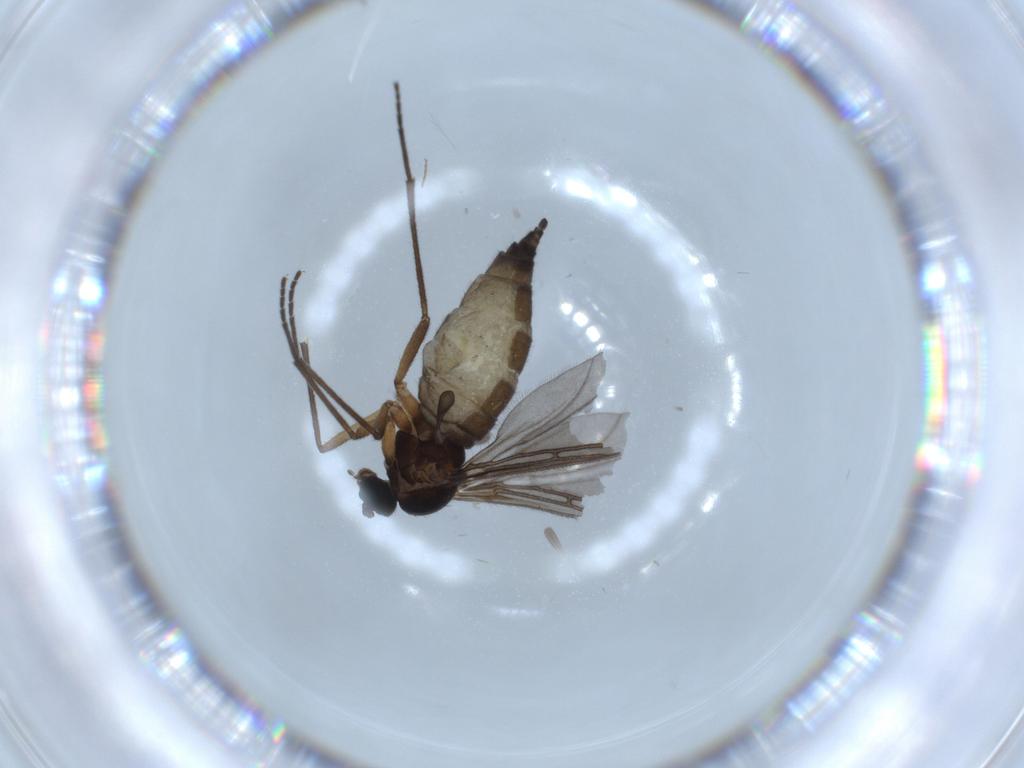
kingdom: Animalia
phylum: Arthropoda
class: Insecta
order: Diptera
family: Sciaridae
